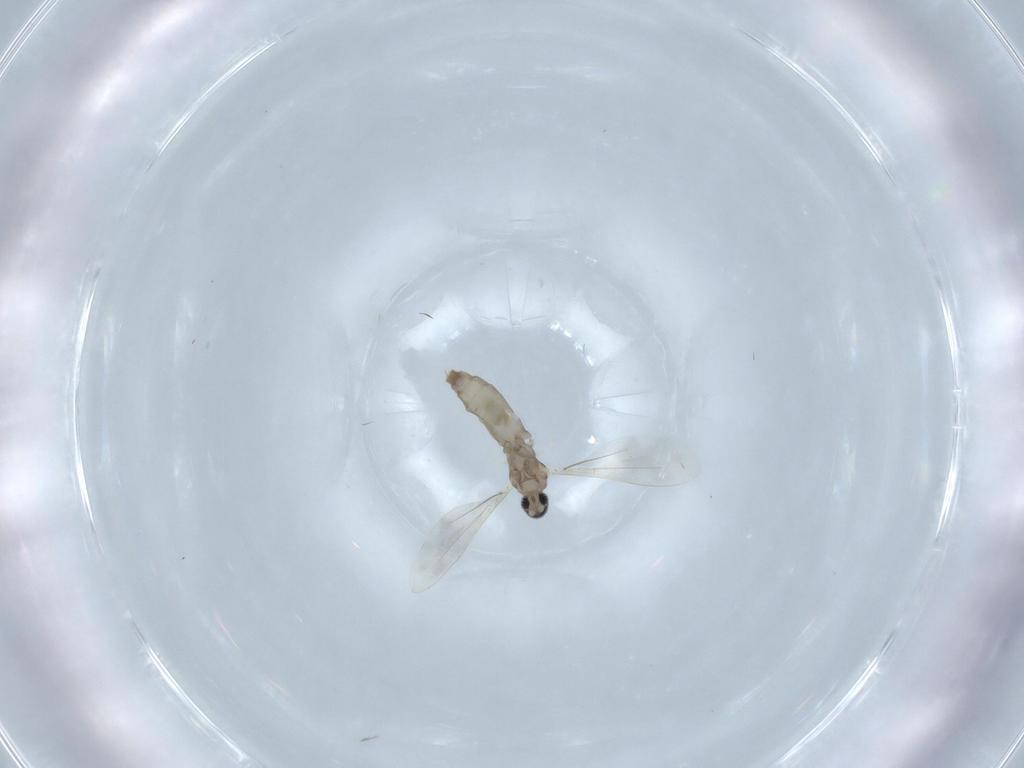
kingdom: Animalia
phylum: Arthropoda
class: Insecta
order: Diptera
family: Cecidomyiidae
